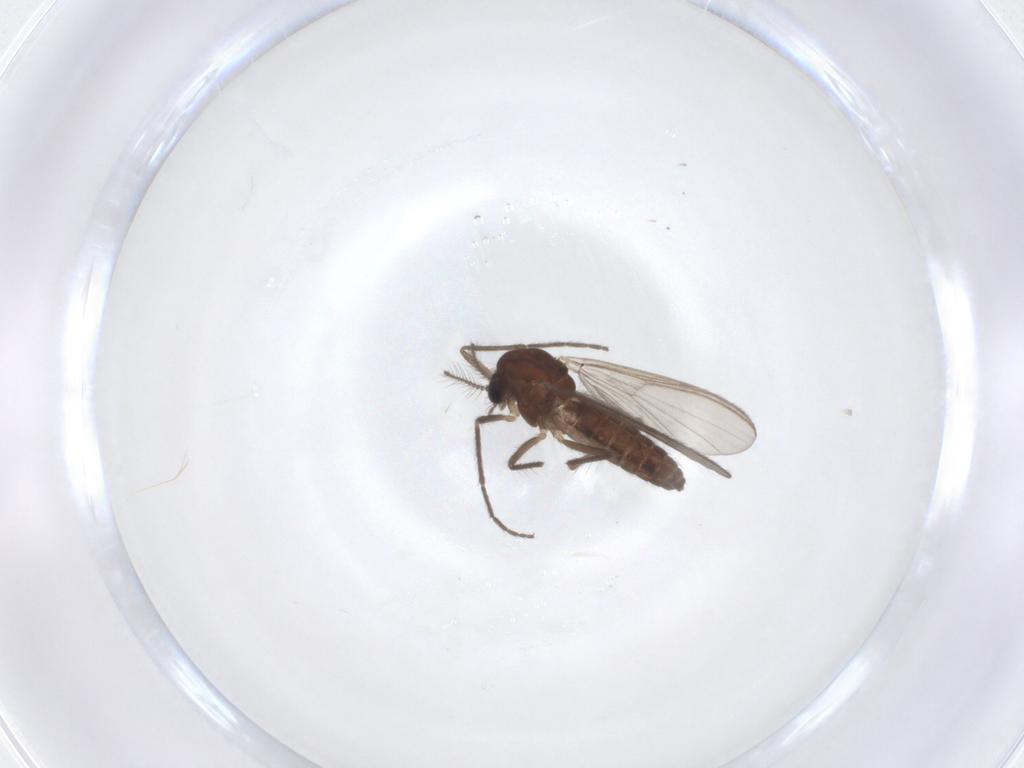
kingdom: Animalia
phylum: Arthropoda
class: Insecta
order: Diptera
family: Chironomidae
